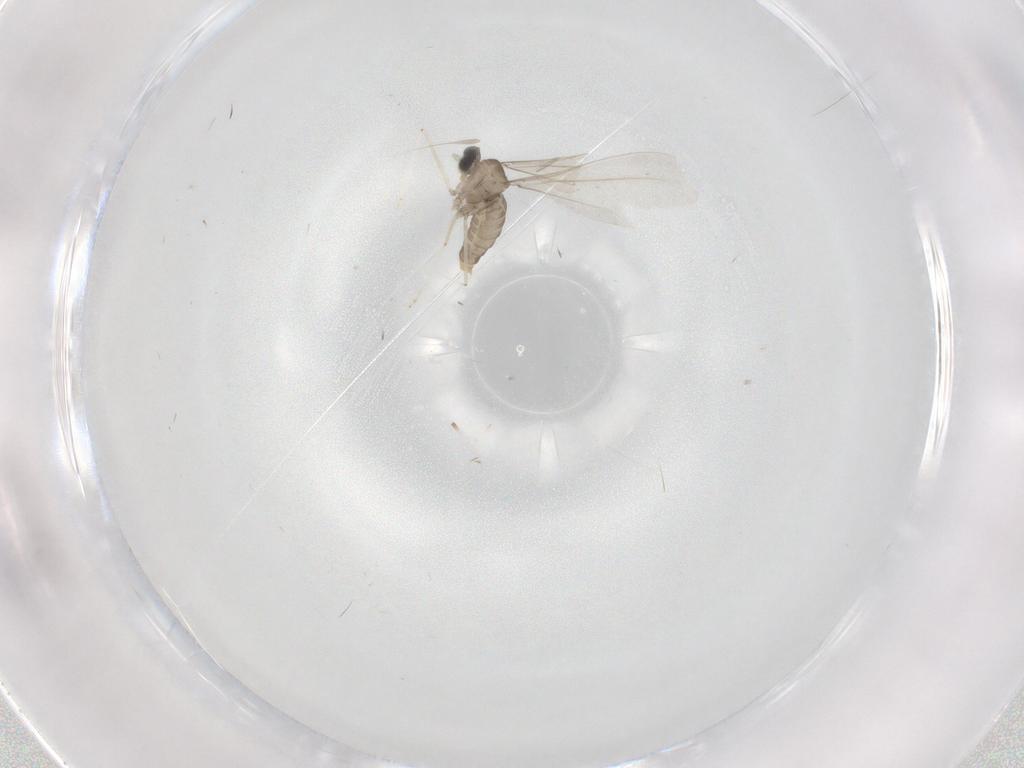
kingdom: Animalia
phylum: Arthropoda
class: Insecta
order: Diptera
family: Cecidomyiidae
